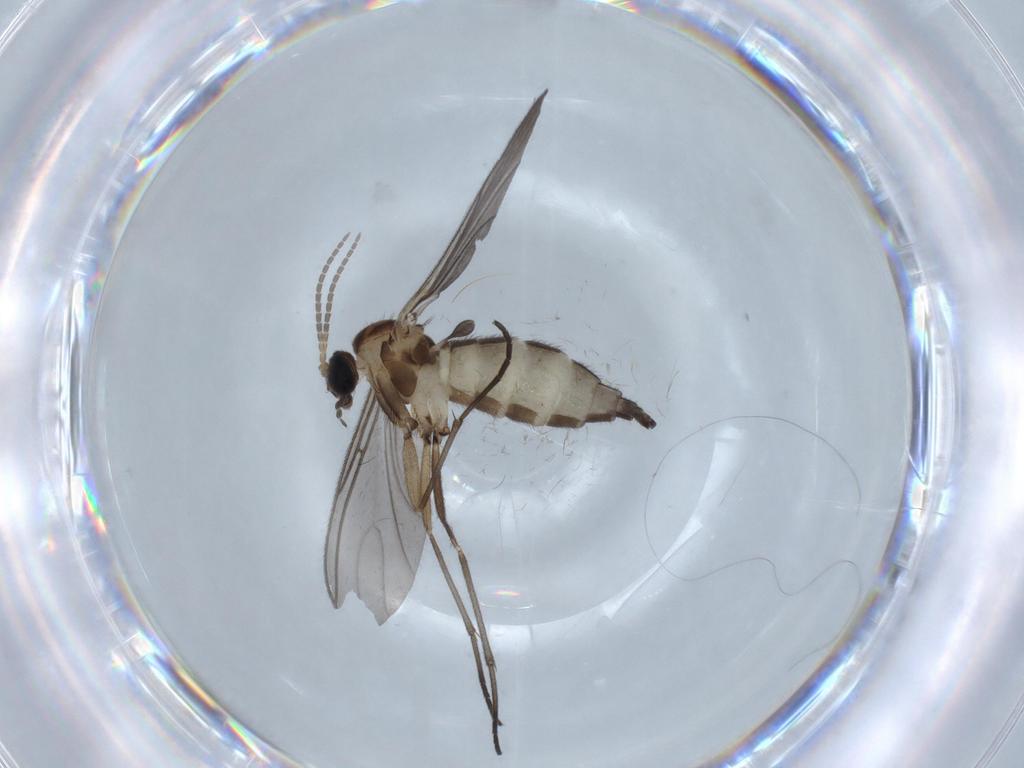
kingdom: Animalia
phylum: Arthropoda
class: Insecta
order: Diptera
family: Sciaridae
